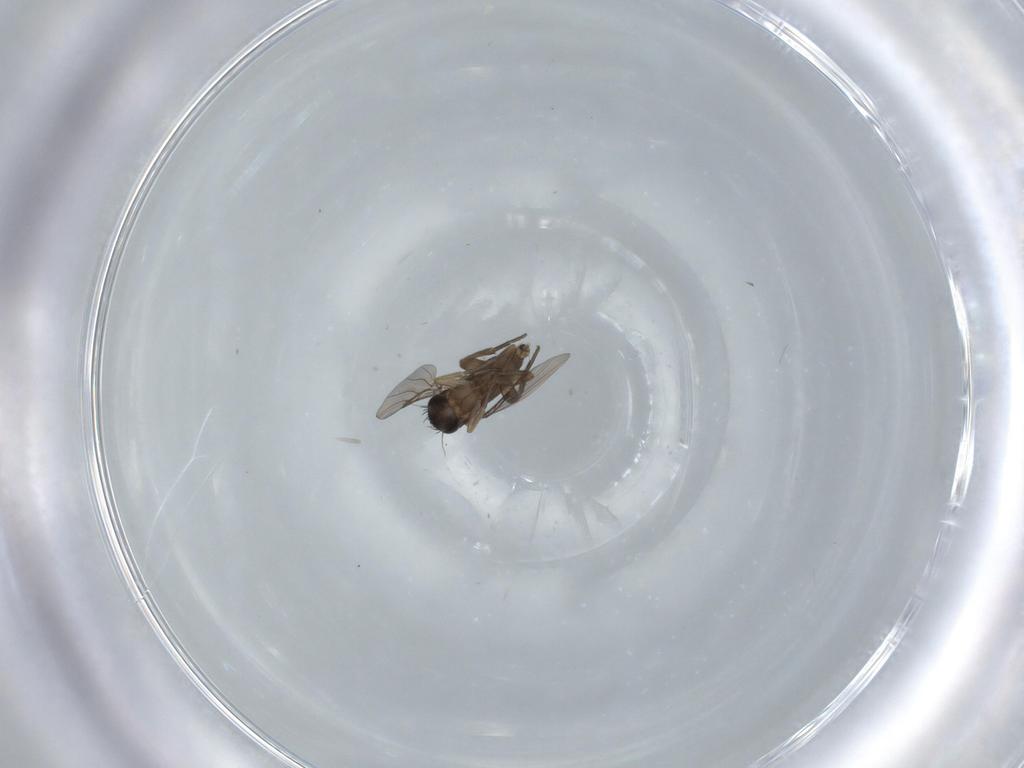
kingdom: Animalia
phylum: Arthropoda
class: Insecta
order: Diptera
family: Phoridae
